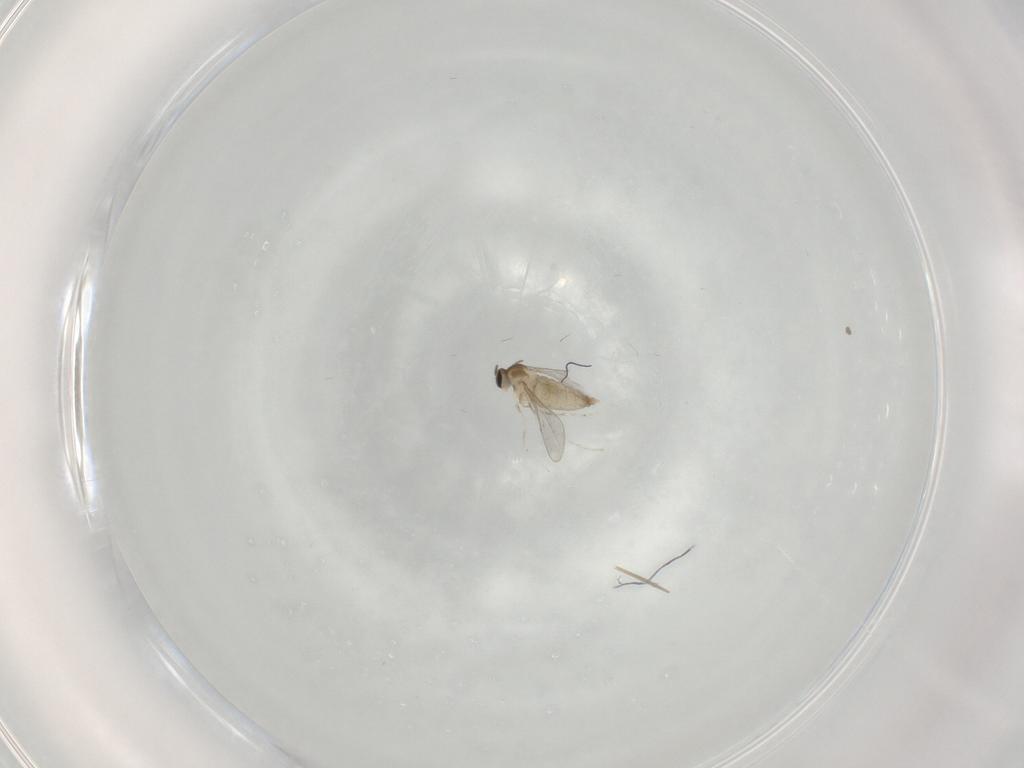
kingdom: Animalia
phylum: Arthropoda
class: Insecta
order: Diptera
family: Cecidomyiidae
